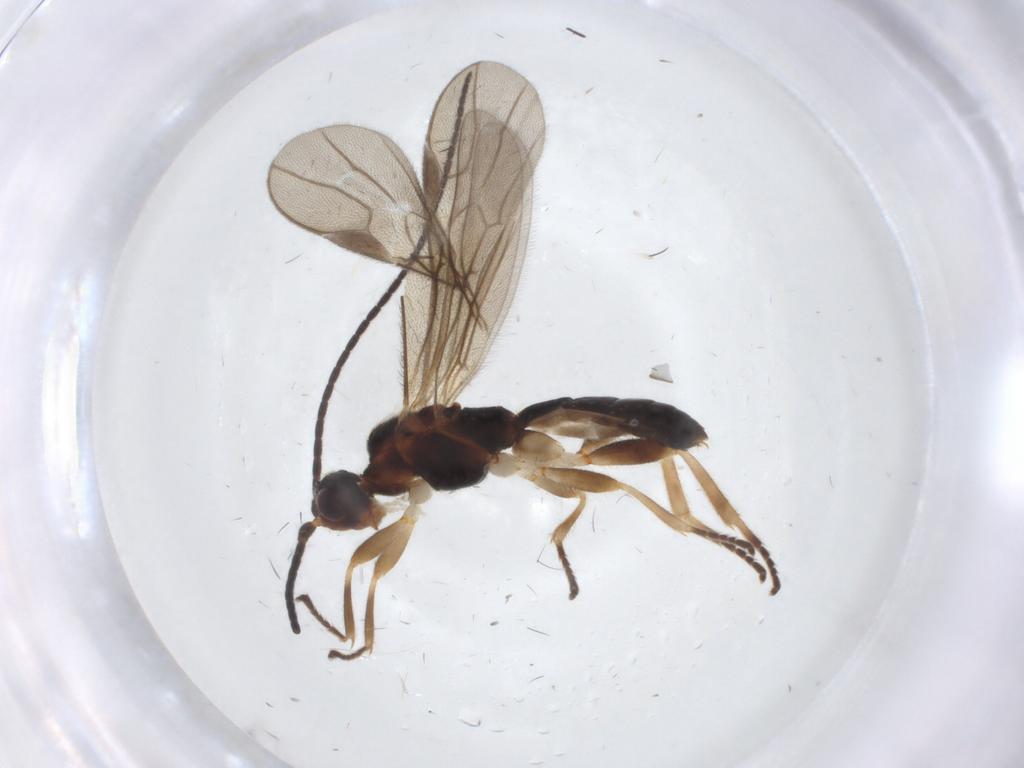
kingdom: Animalia
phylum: Arthropoda
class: Insecta
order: Hymenoptera
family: Braconidae
